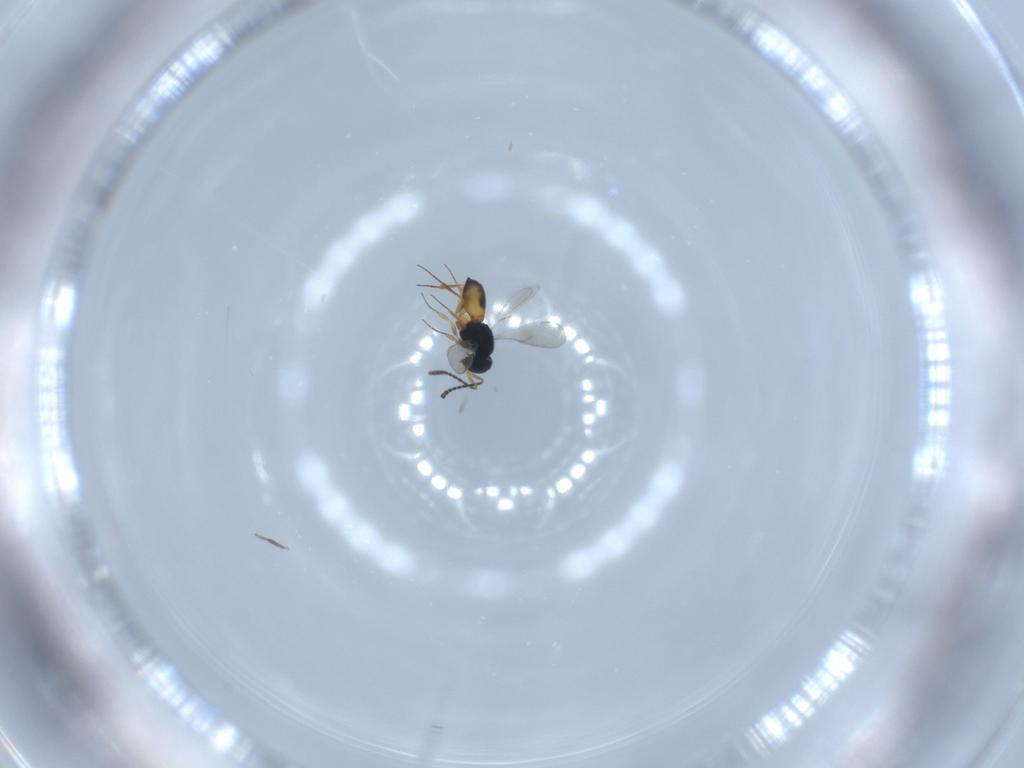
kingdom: Animalia
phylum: Arthropoda
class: Insecta
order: Hymenoptera
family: Scelionidae
